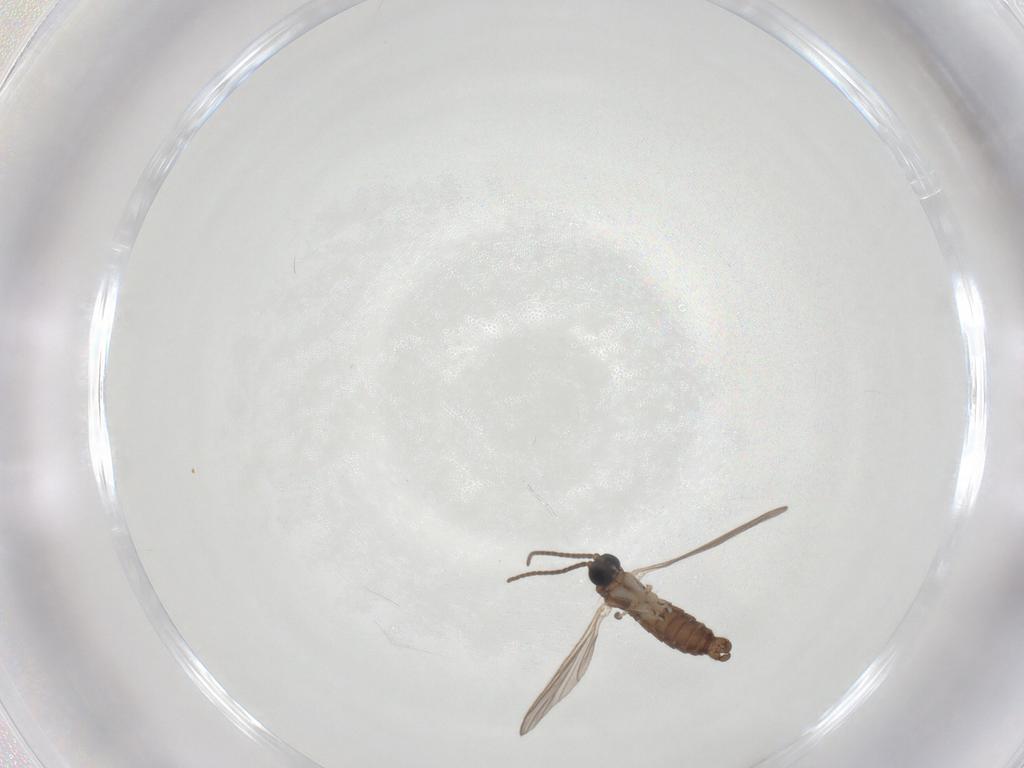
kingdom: Animalia
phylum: Arthropoda
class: Insecta
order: Diptera
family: Sciaridae
